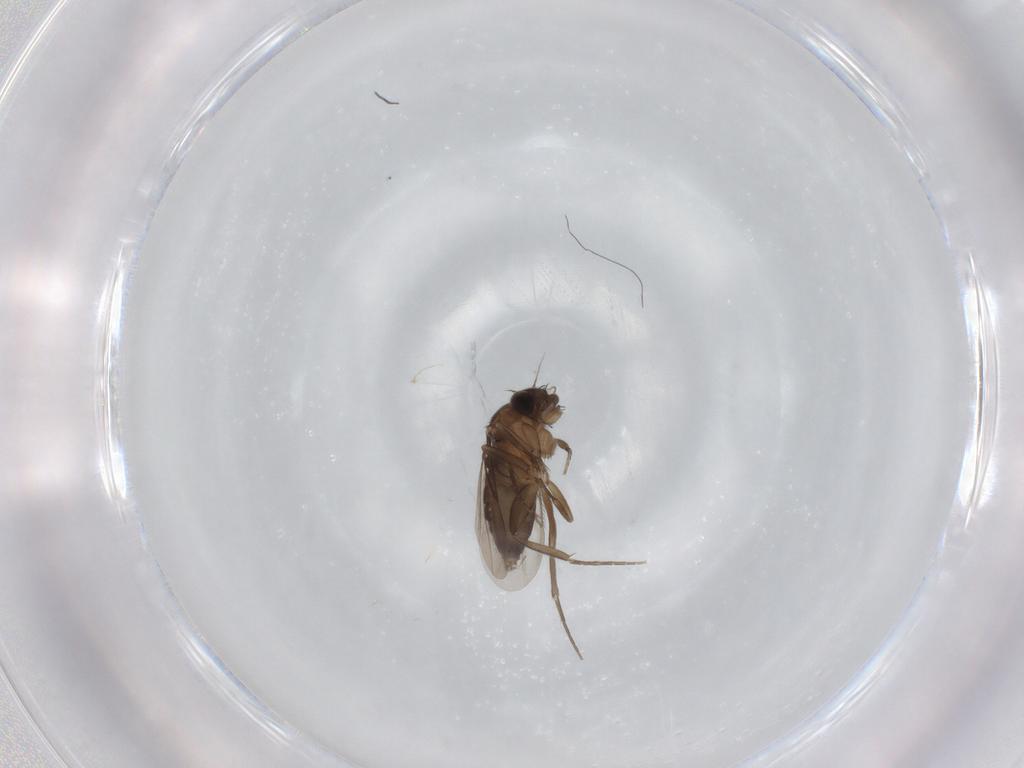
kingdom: Animalia
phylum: Arthropoda
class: Insecta
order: Diptera
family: Phoridae
